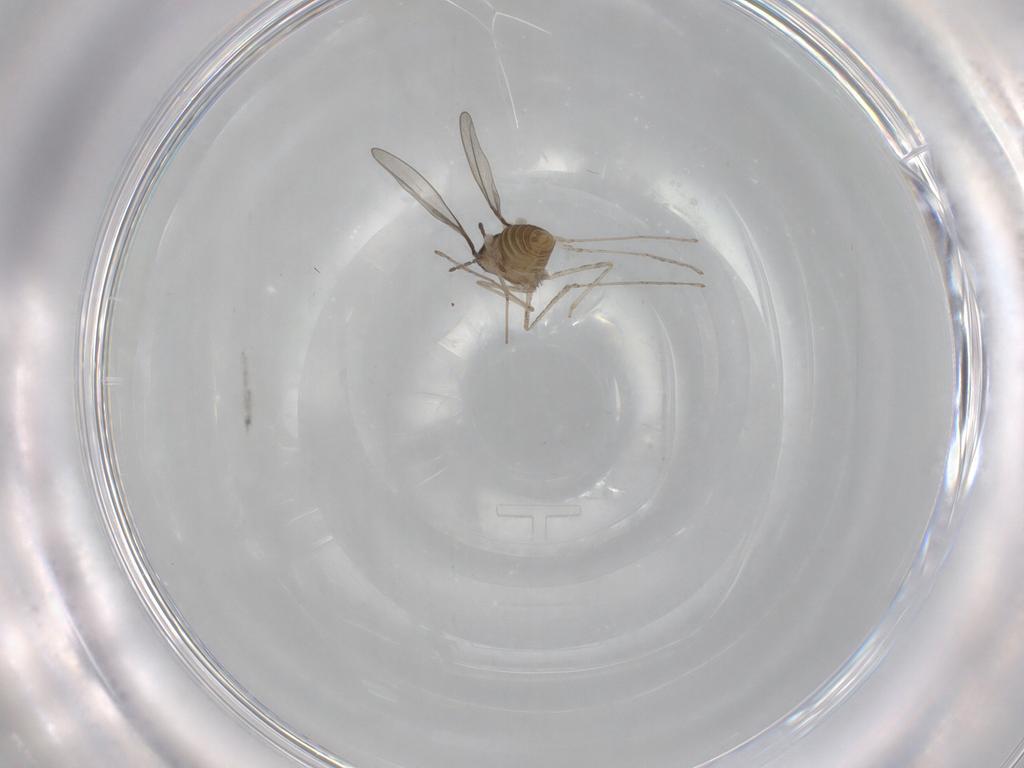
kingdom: Animalia
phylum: Arthropoda
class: Insecta
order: Diptera
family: Cecidomyiidae
